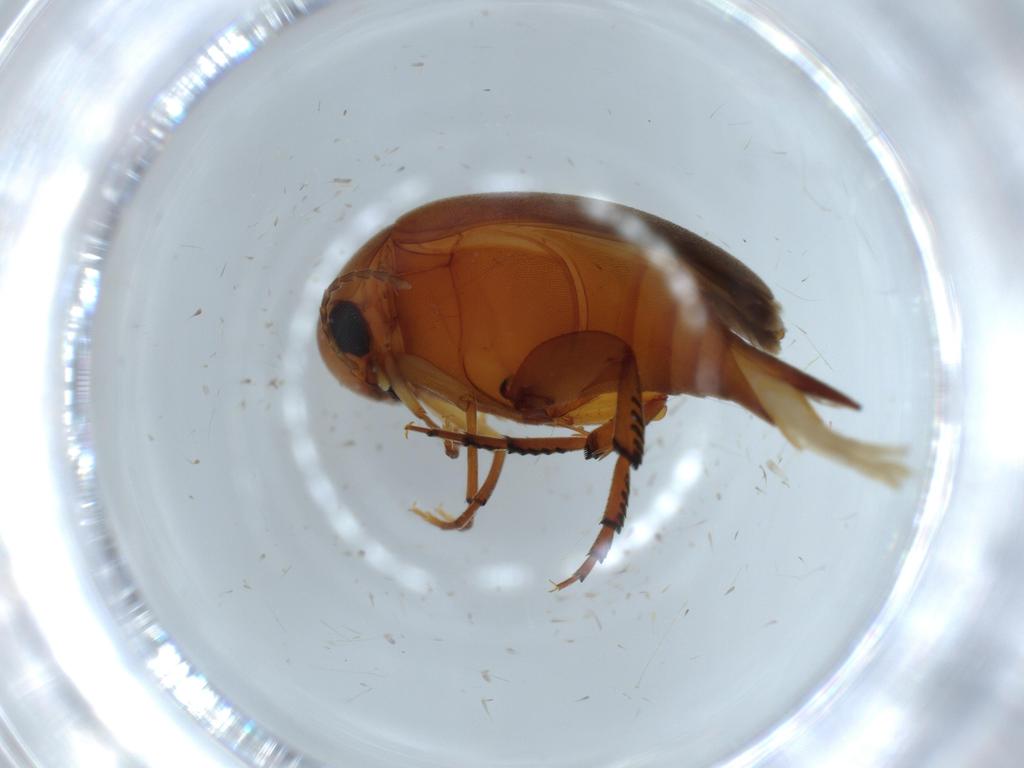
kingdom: Animalia
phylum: Arthropoda
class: Insecta
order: Coleoptera
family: Mordellidae
